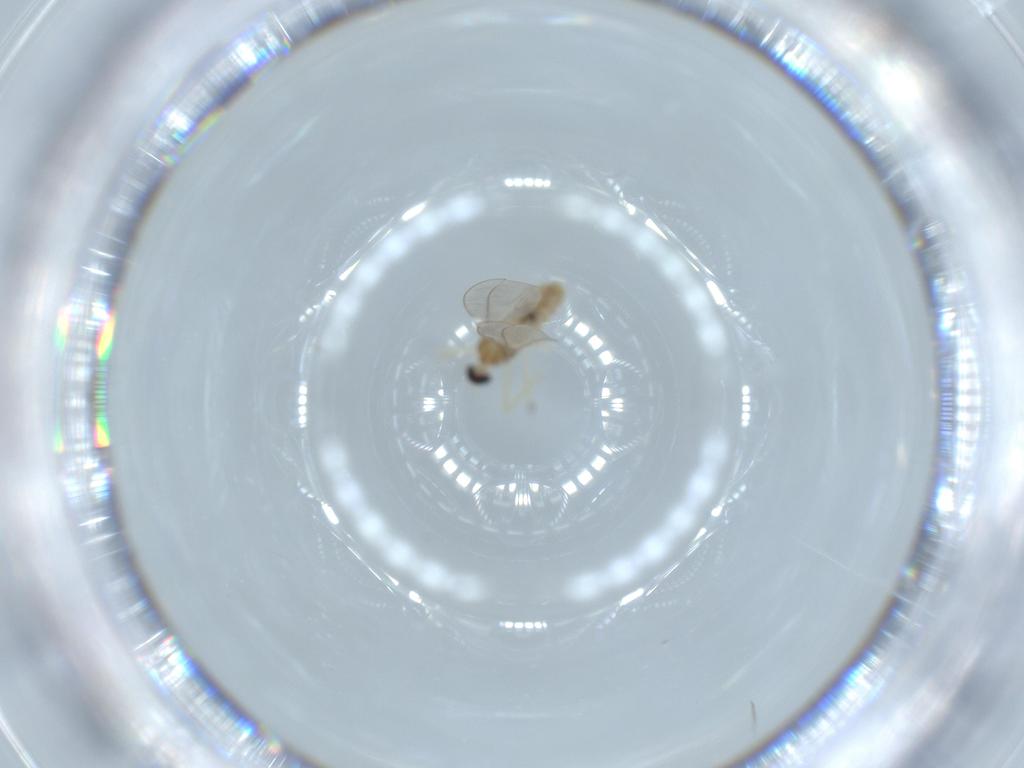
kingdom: Animalia
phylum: Arthropoda
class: Insecta
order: Diptera
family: Cecidomyiidae
